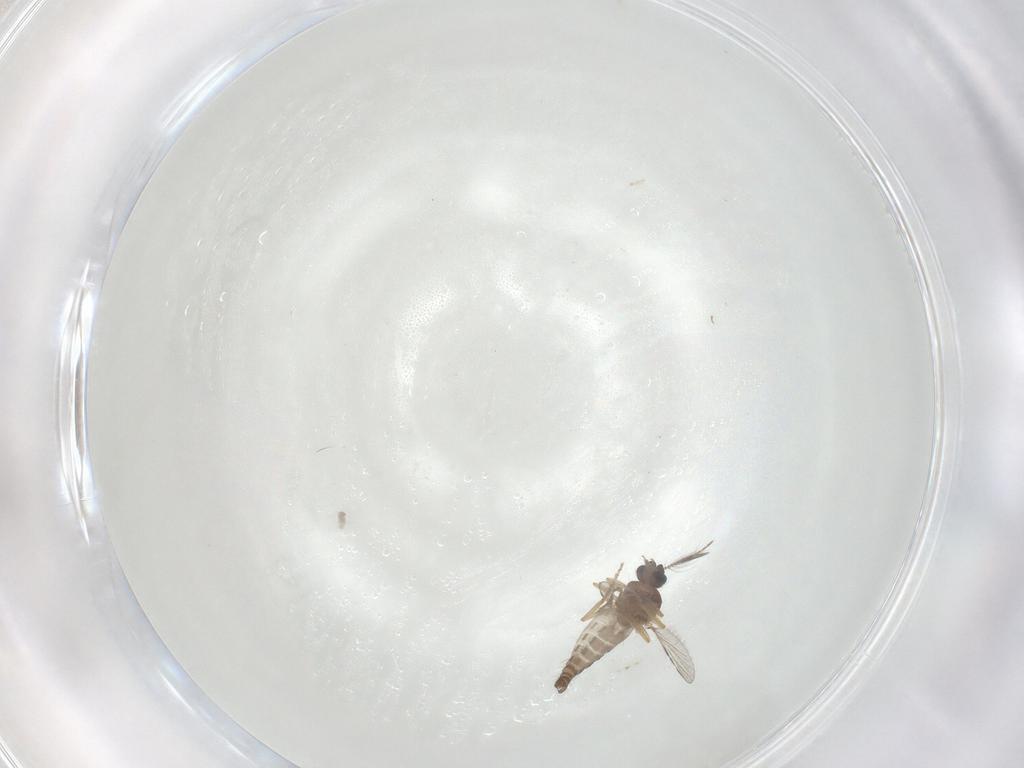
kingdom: Animalia
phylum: Arthropoda
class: Insecta
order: Diptera
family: Ceratopogonidae
